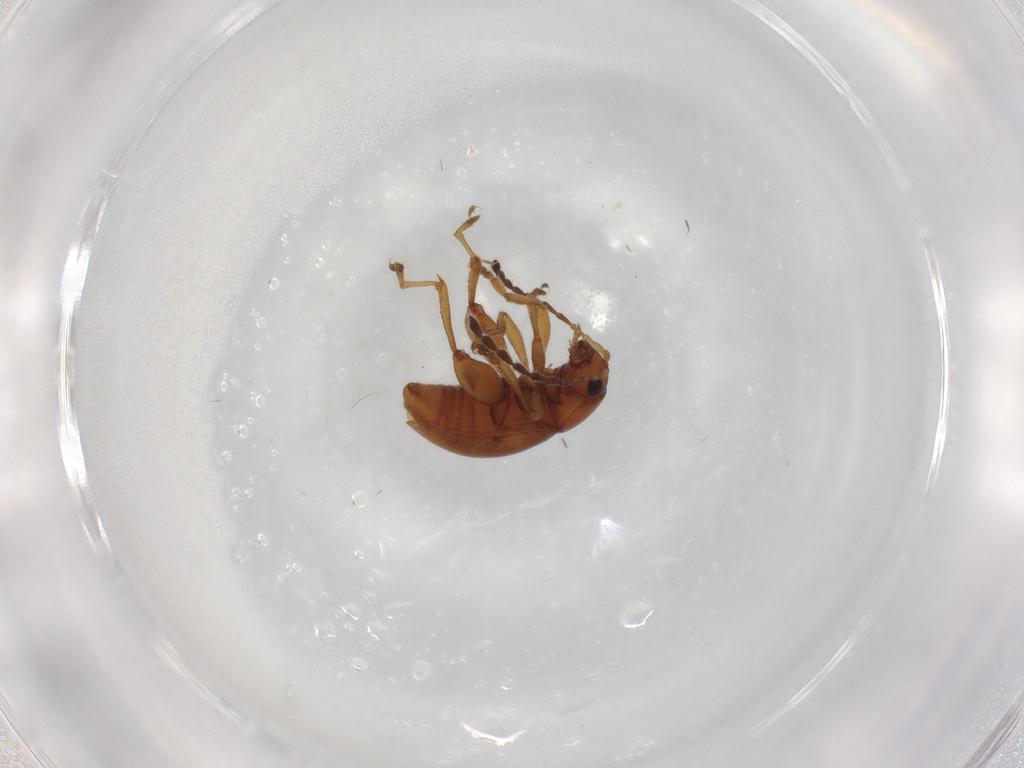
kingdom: Animalia
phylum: Arthropoda
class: Insecta
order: Coleoptera
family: Chrysomelidae
